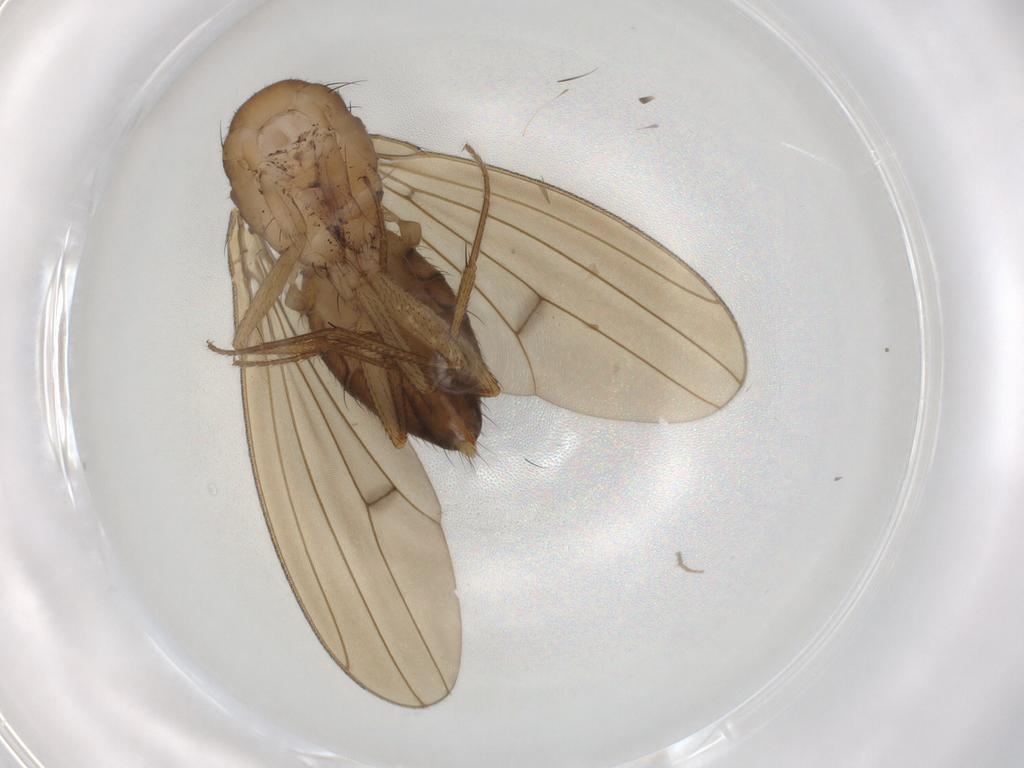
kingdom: Animalia
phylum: Arthropoda
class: Insecta
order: Diptera
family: Drosophilidae
